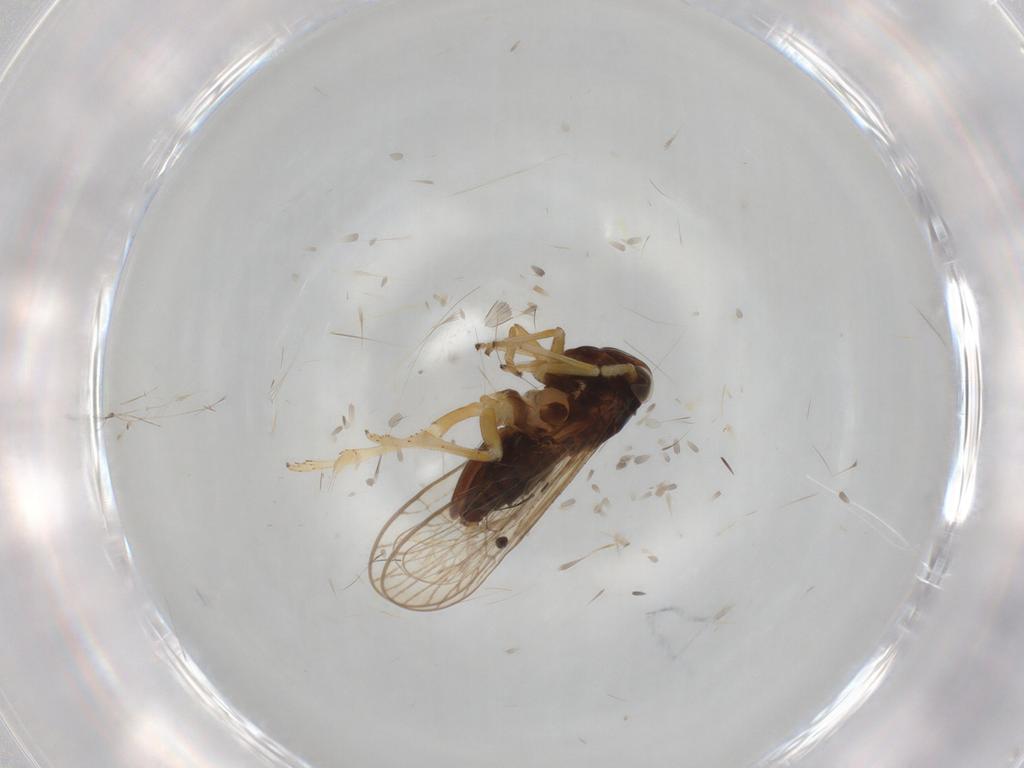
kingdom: Animalia
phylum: Arthropoda
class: Insecta
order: Hemiptera
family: Delphacidae
